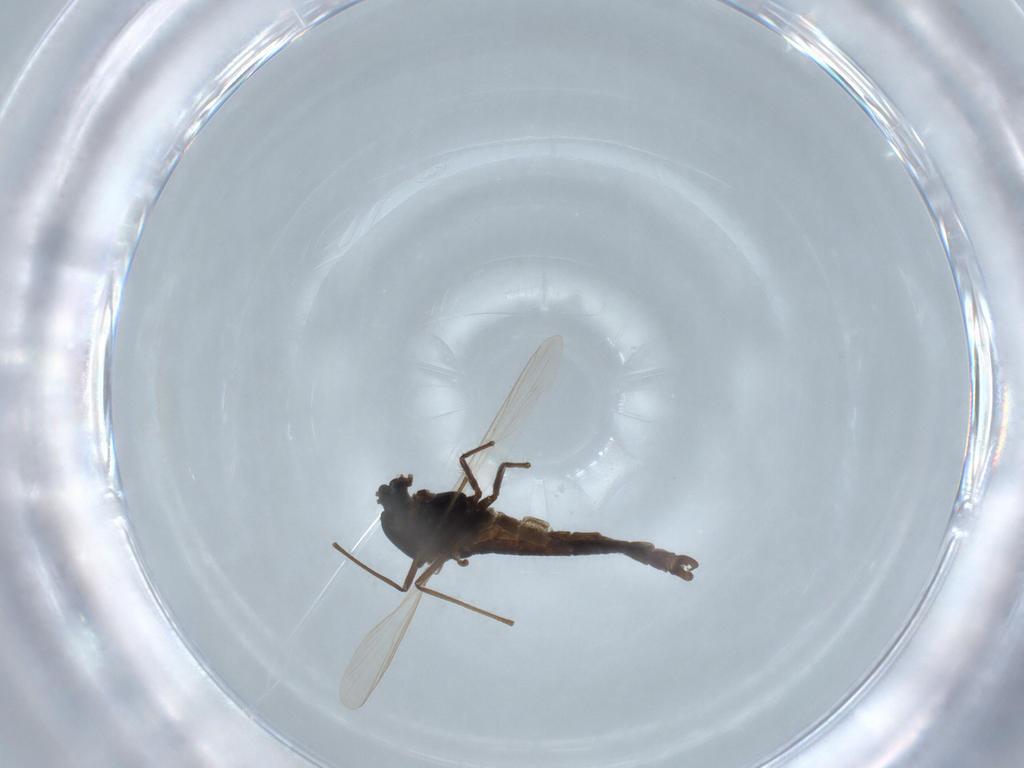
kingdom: Animalia
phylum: Arthropoda
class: Insecta
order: Diptera
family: Chironomidae
